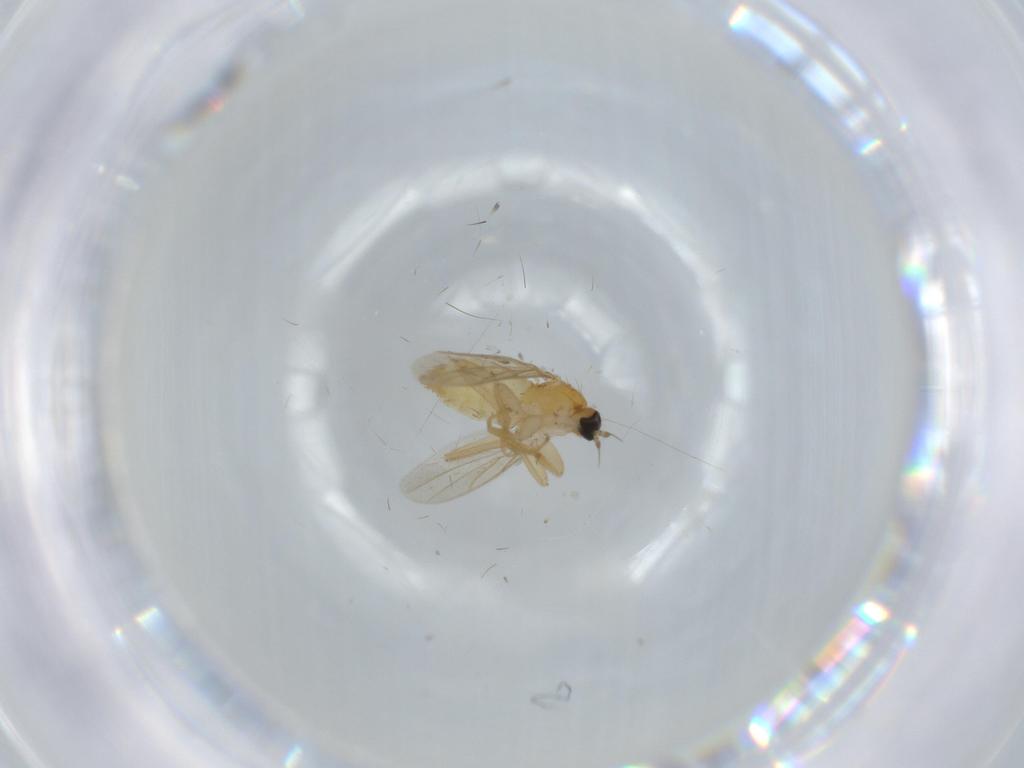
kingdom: Animalia
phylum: Arthropoda
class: Insecta
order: Diptera
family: Hybotidae
